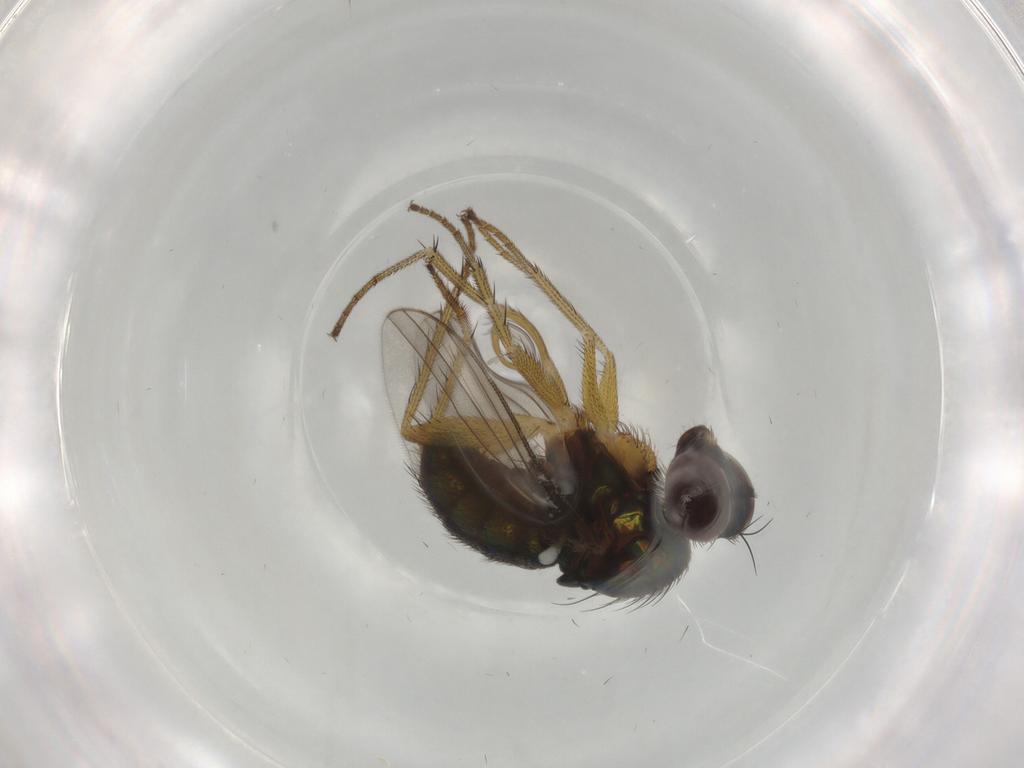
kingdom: Animalia
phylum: Arthropoda
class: Insecta
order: Diptera
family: Dolichopodidae
